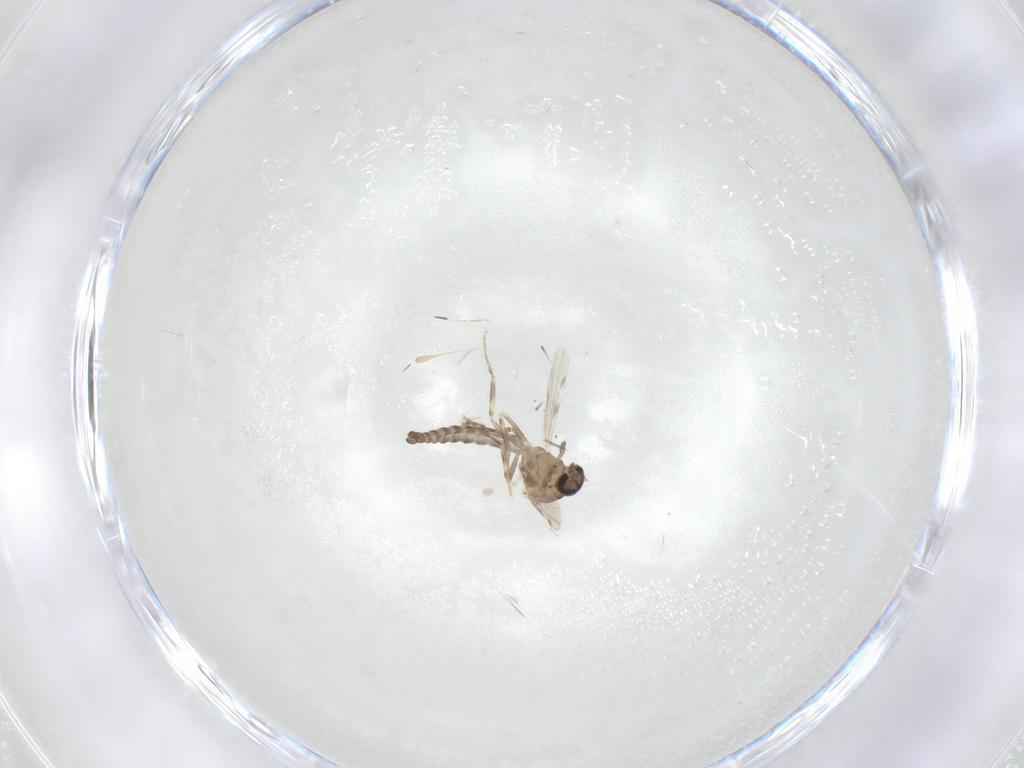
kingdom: Animalia
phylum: Arthropoda
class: Insecta
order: Diptera
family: Ceratopogonidae
